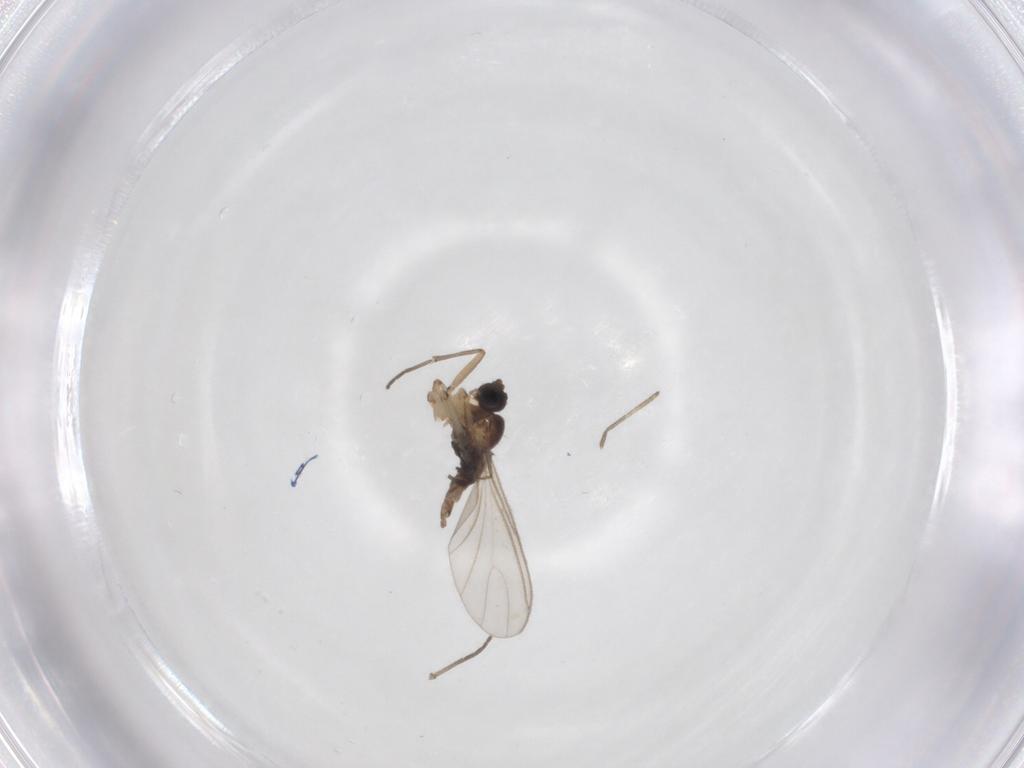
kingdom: Animalia
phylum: Arthropoda
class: Insecta
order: Diptera
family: Sciaridae
